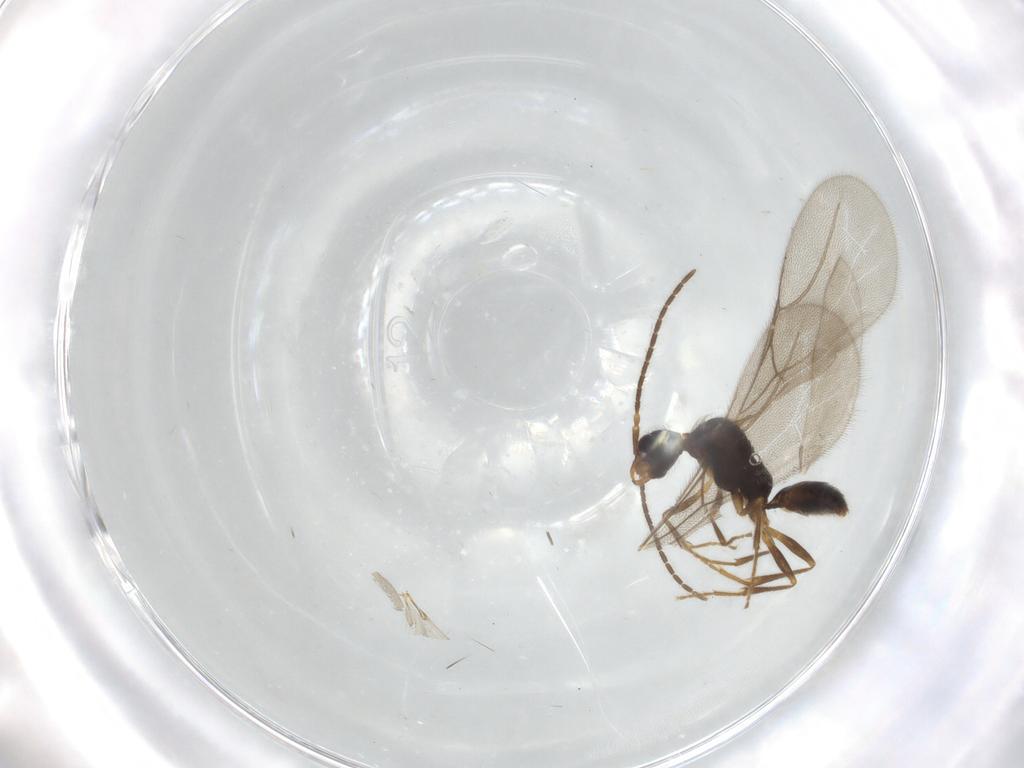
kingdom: Animalia
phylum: Arthropoda
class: Insecta
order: Hymenoptera
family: Bethylidae
